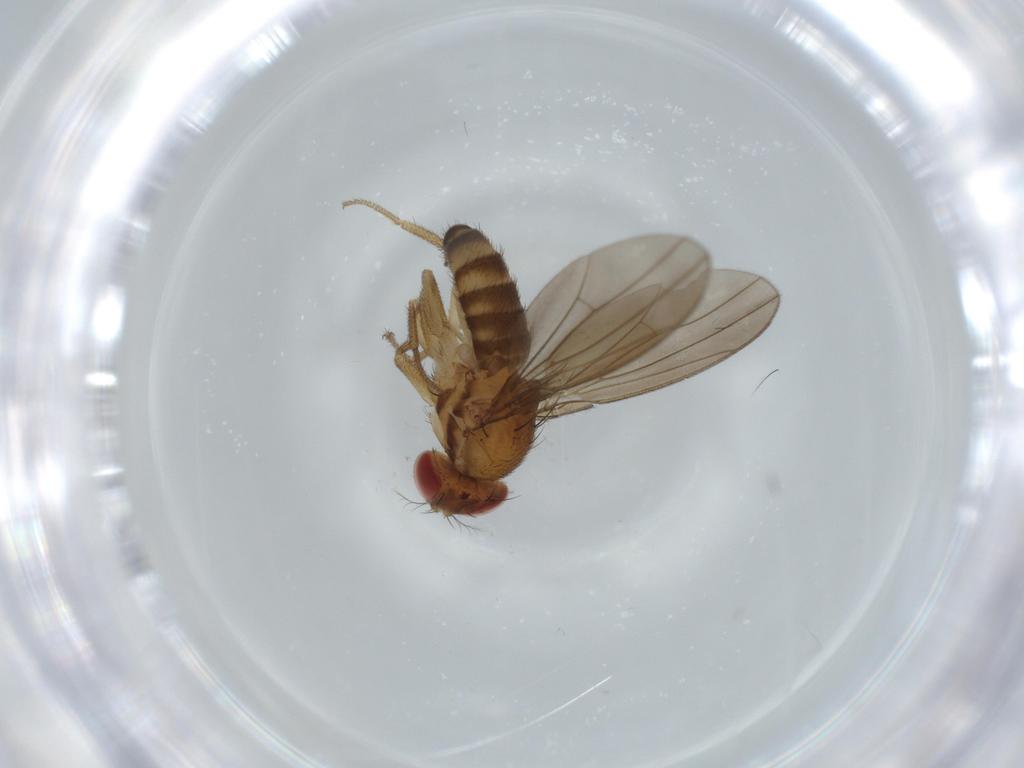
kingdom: Animalia
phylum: Arthropoda
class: Insecta
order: Diptera
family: Drosophilidae
